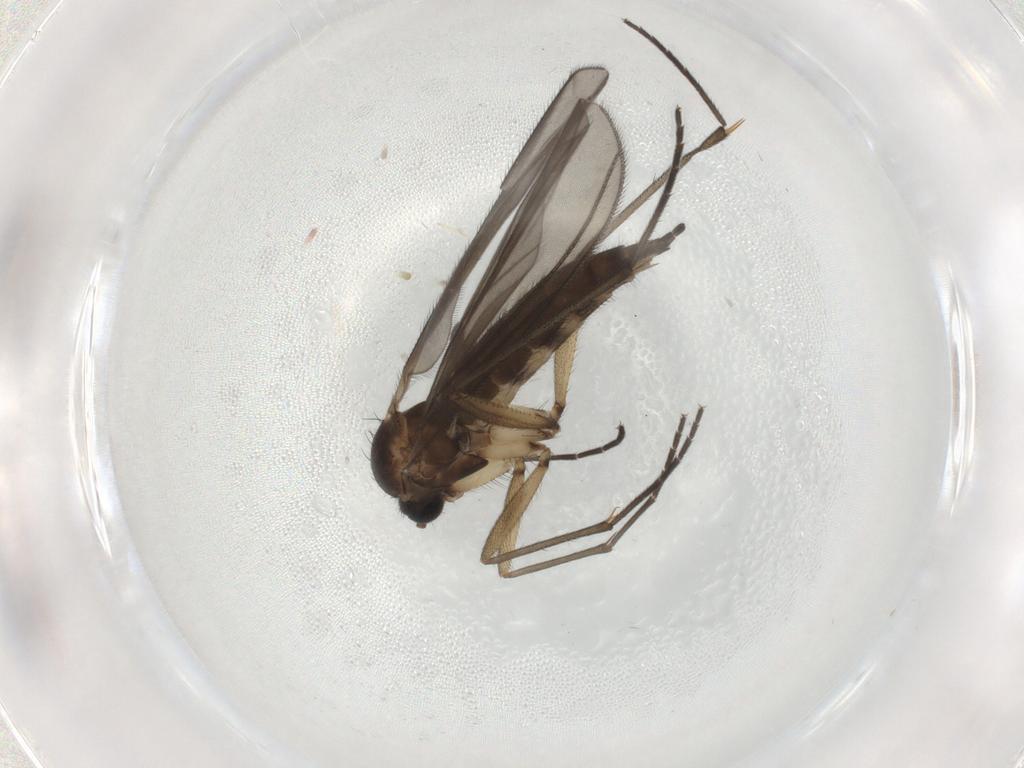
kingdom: Animalia
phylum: Arthropoda
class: Insecta
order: Diptera
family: Sciaridae
